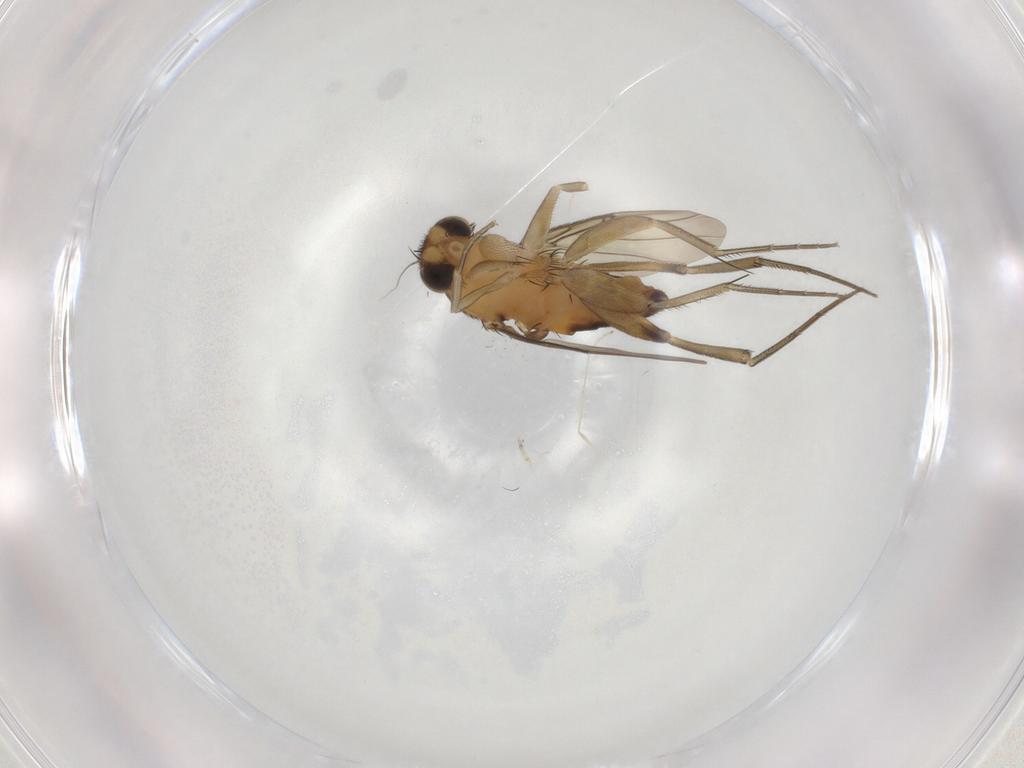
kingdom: Animalia
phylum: Arthropoda
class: Insecta
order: Diptera
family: Phoridae
